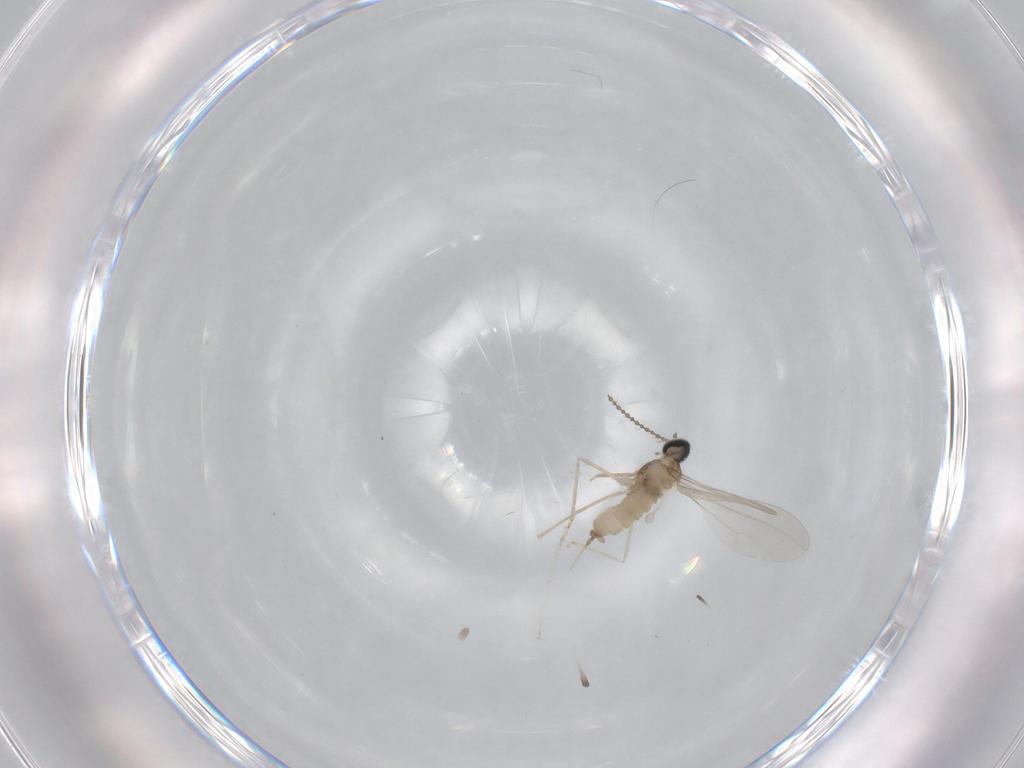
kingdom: Animalia
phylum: Arthropoda
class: Insecta
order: Diptera
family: Cecidomyiidae
